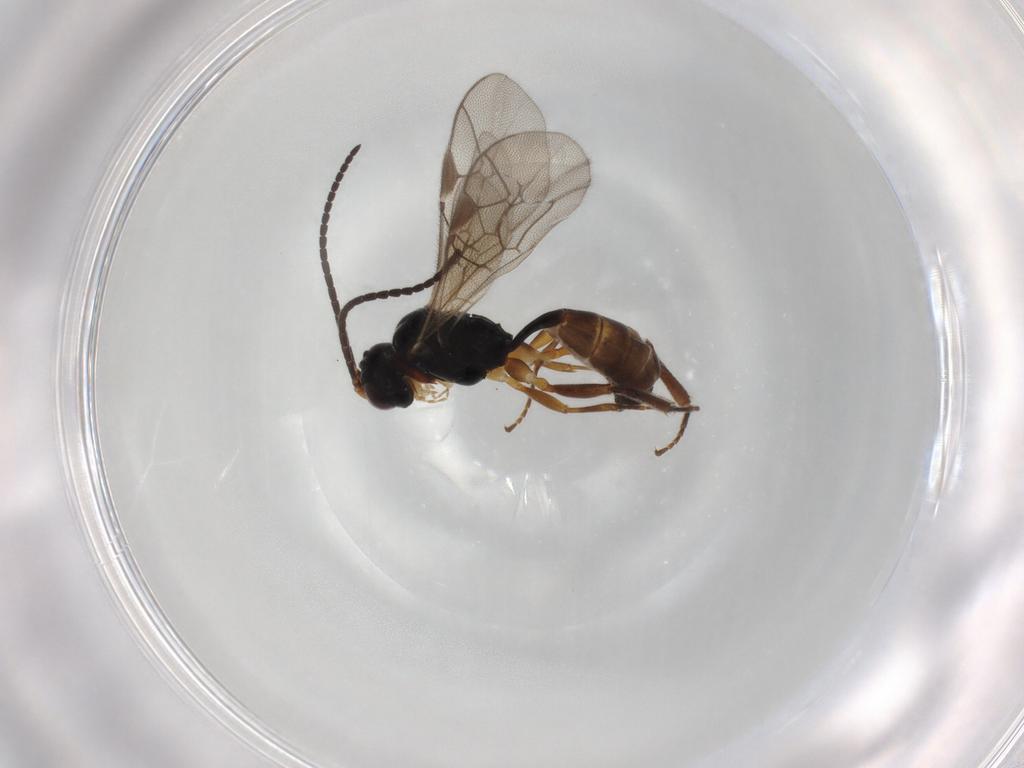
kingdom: Animalia
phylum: Arthropoda
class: Insecta
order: Hymenoptera
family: Ichneumonidae
